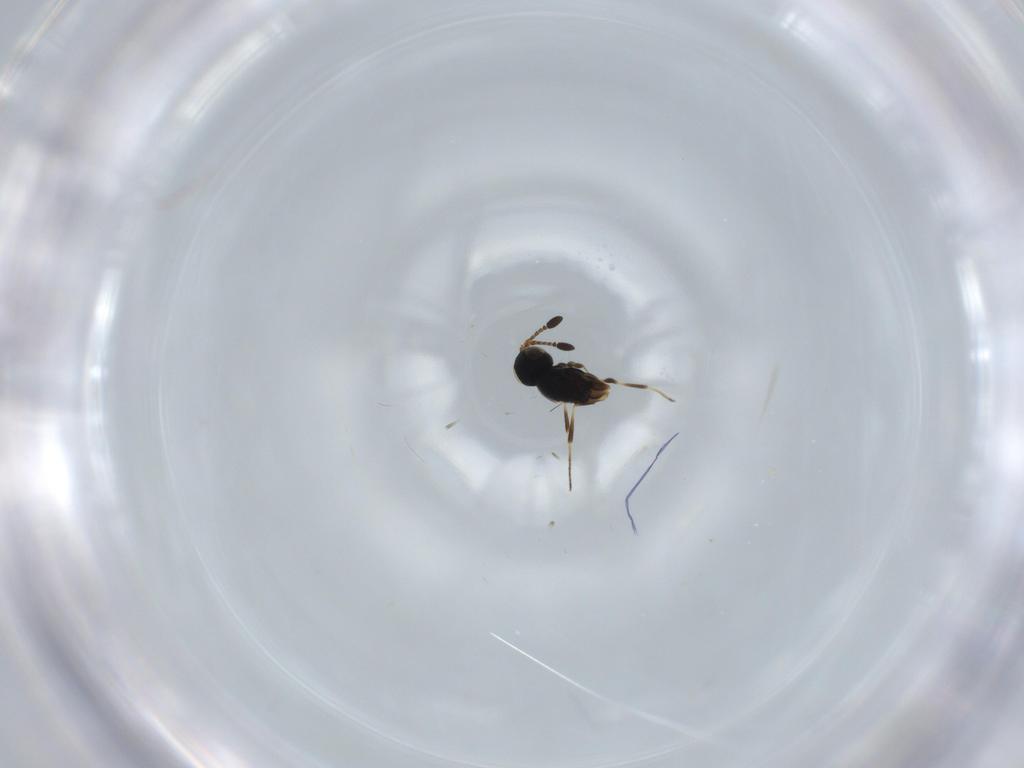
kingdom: Animalia
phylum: Arthropoda
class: Insecta
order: Hymenoptera
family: Scelionidae
